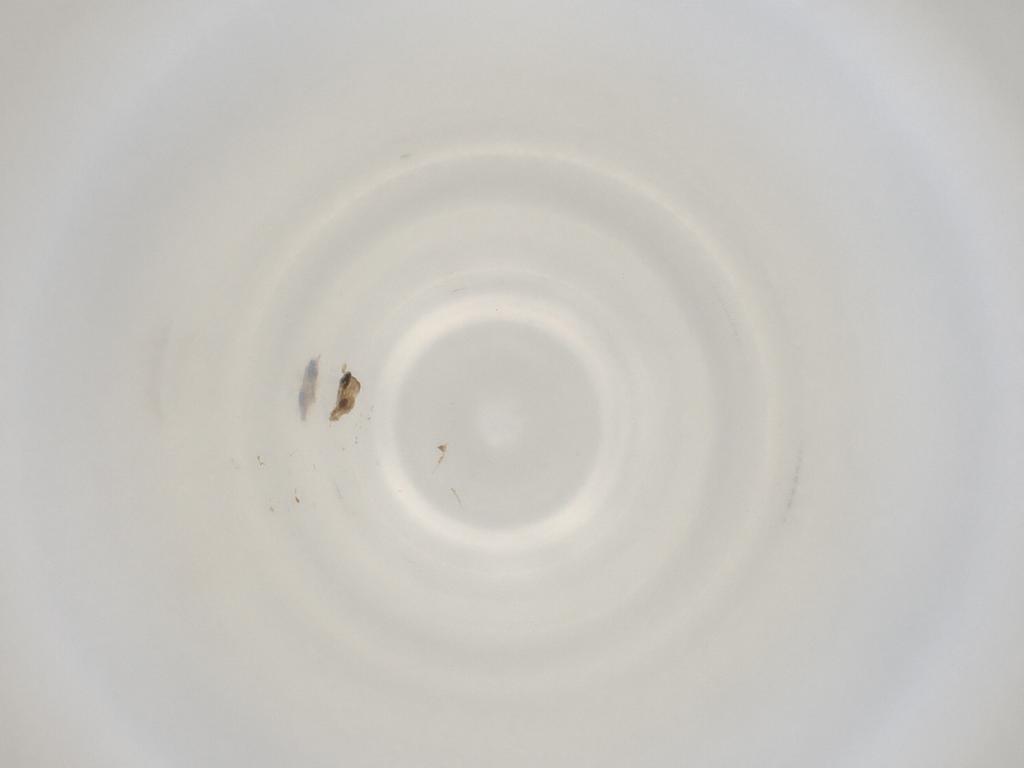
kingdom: Animalia
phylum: Arthropoda
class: Insecta
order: Diptera
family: Cecidomyiidae
